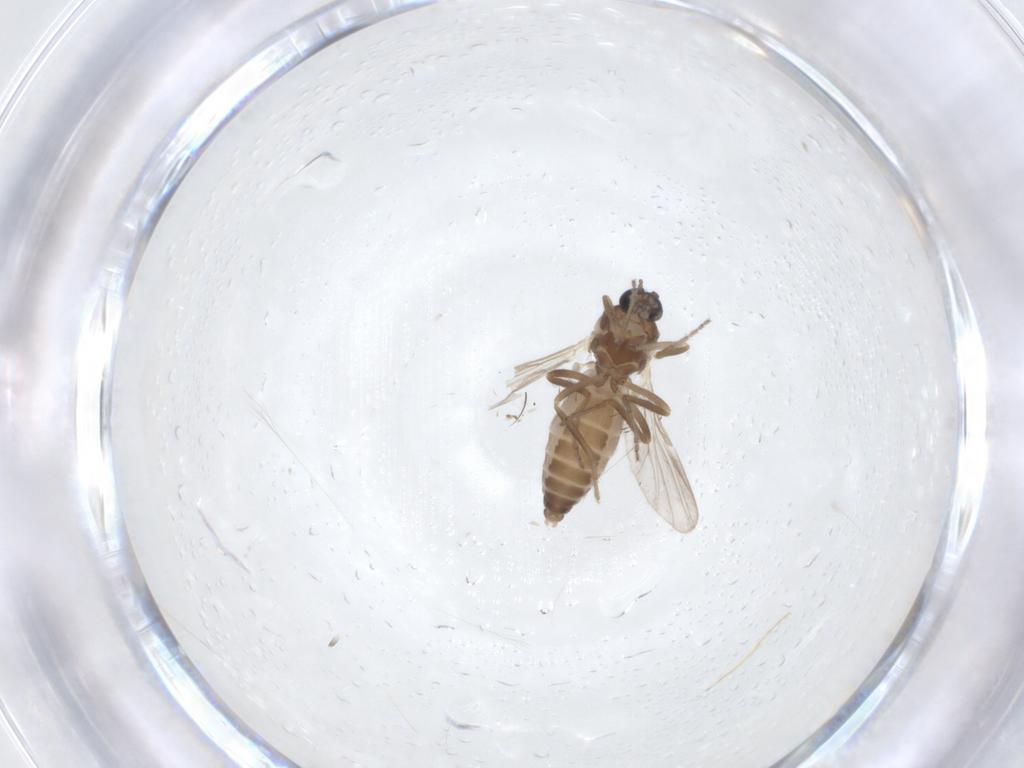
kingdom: Animalia
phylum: Arthropoda
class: Insecta
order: Diptera
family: Ceratopogonidae
